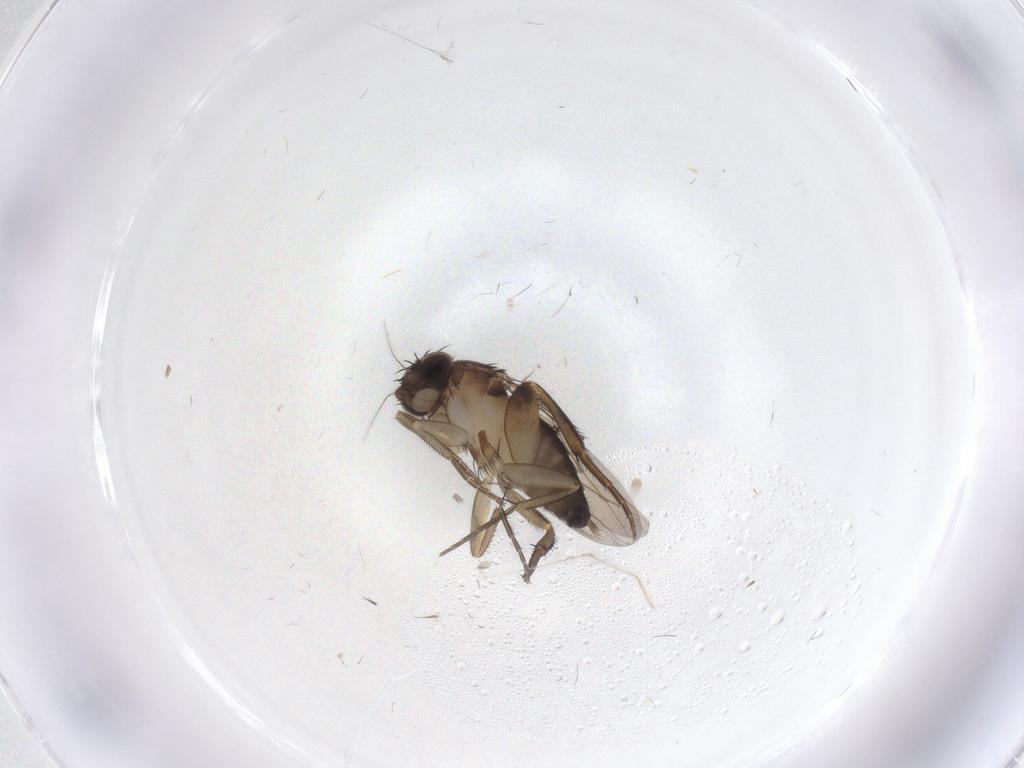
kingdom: Animalia
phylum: Arthropoda
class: Insecta
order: Diptera
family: Phoridae
